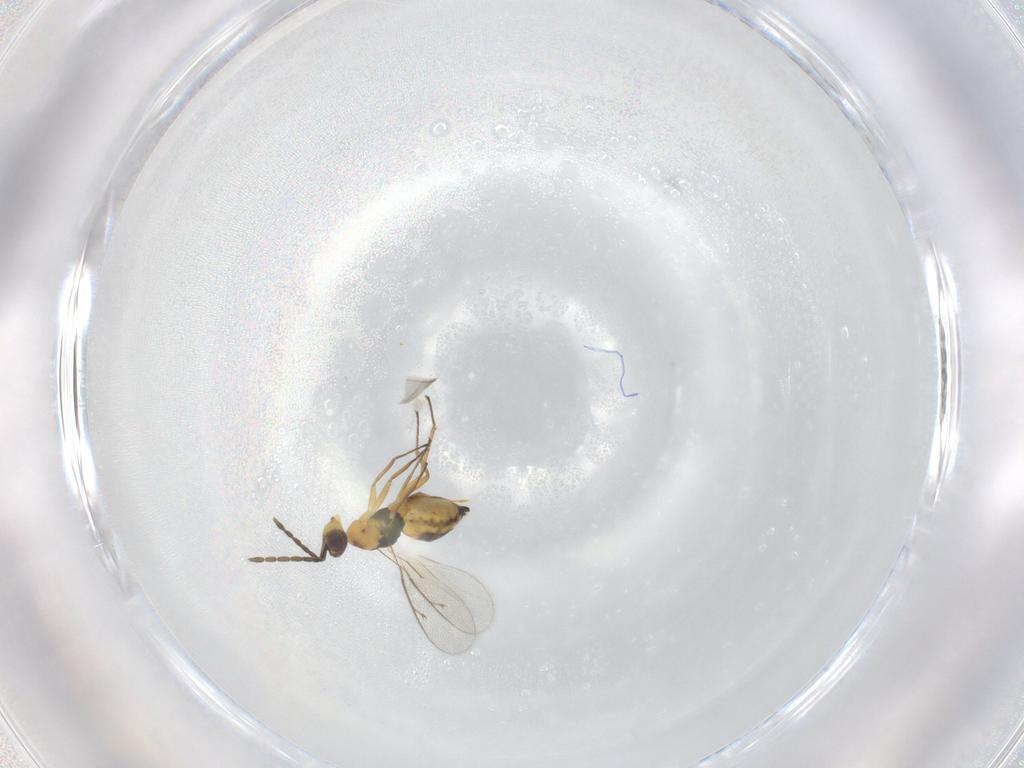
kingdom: Animalia
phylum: Arthropoda
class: Insecta
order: Hymenoptera
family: Eulophidae
